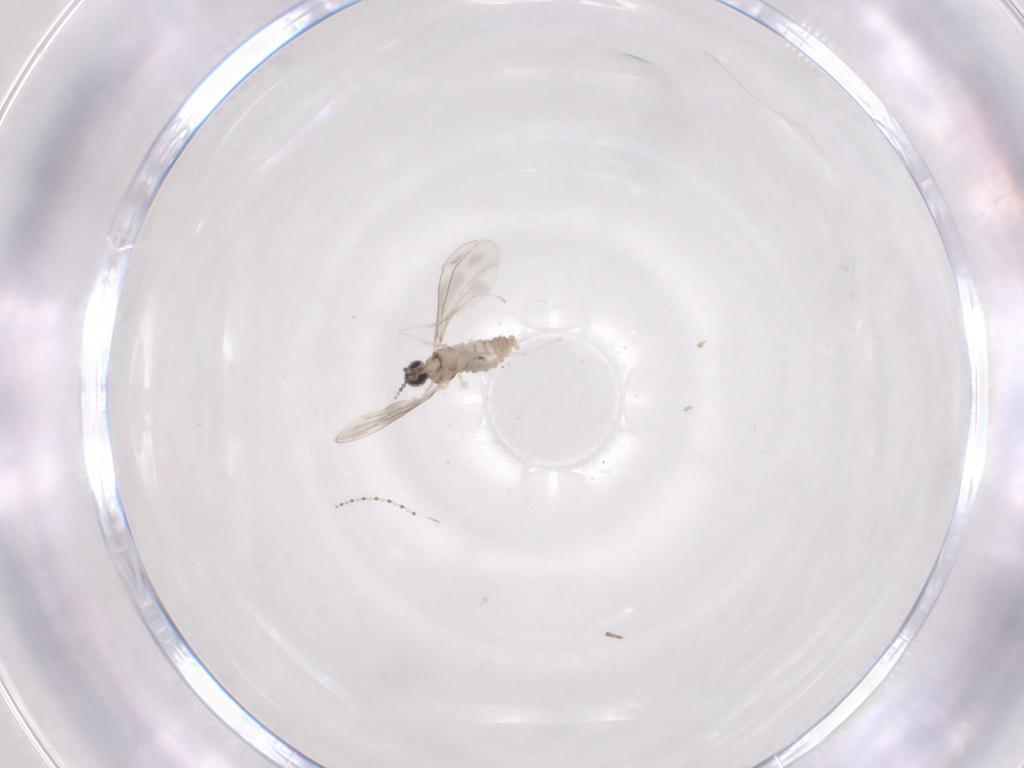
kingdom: Animalia
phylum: Arthropoda
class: Insecta
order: Diptera
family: Cecidomyiidae
